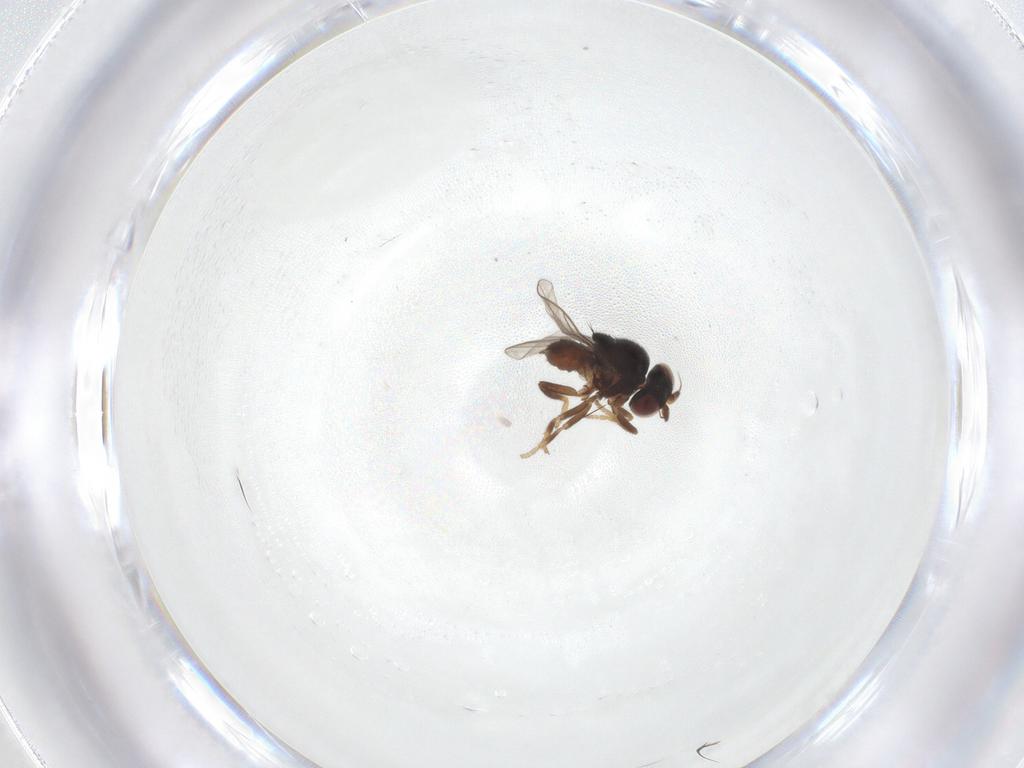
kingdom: Animalia
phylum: Arthropoda
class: Insecta
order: Diptera
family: Chloropidae
